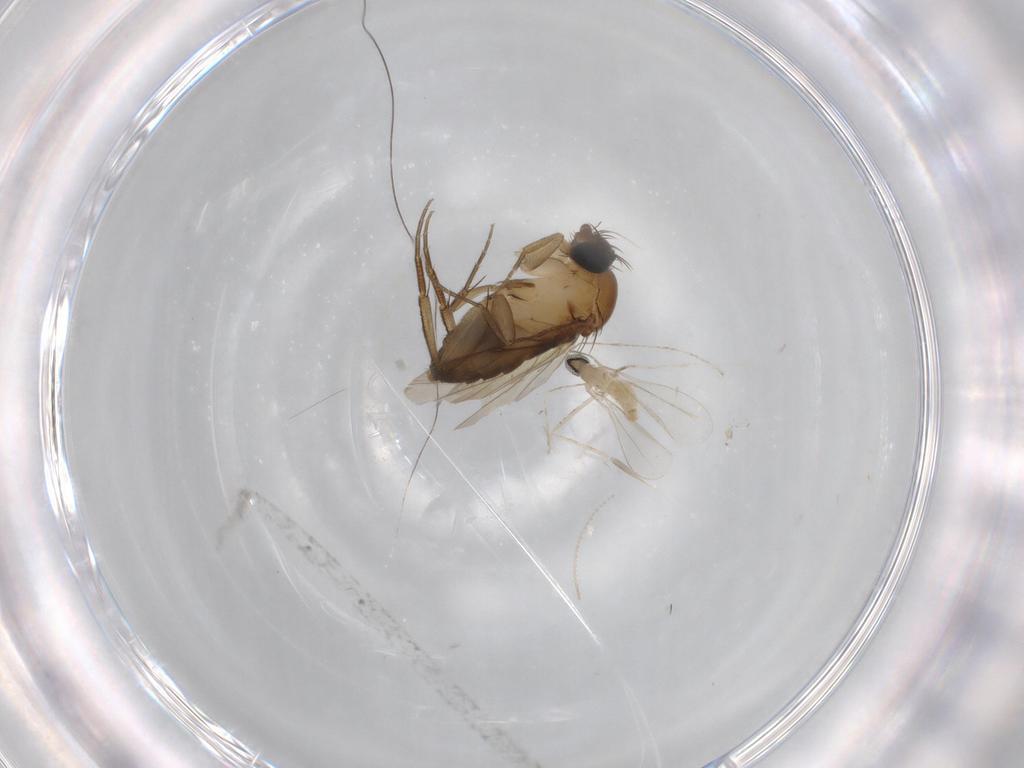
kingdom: Animalia
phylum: Arthropoda
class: Insecta
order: Diptera
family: Phoridae
